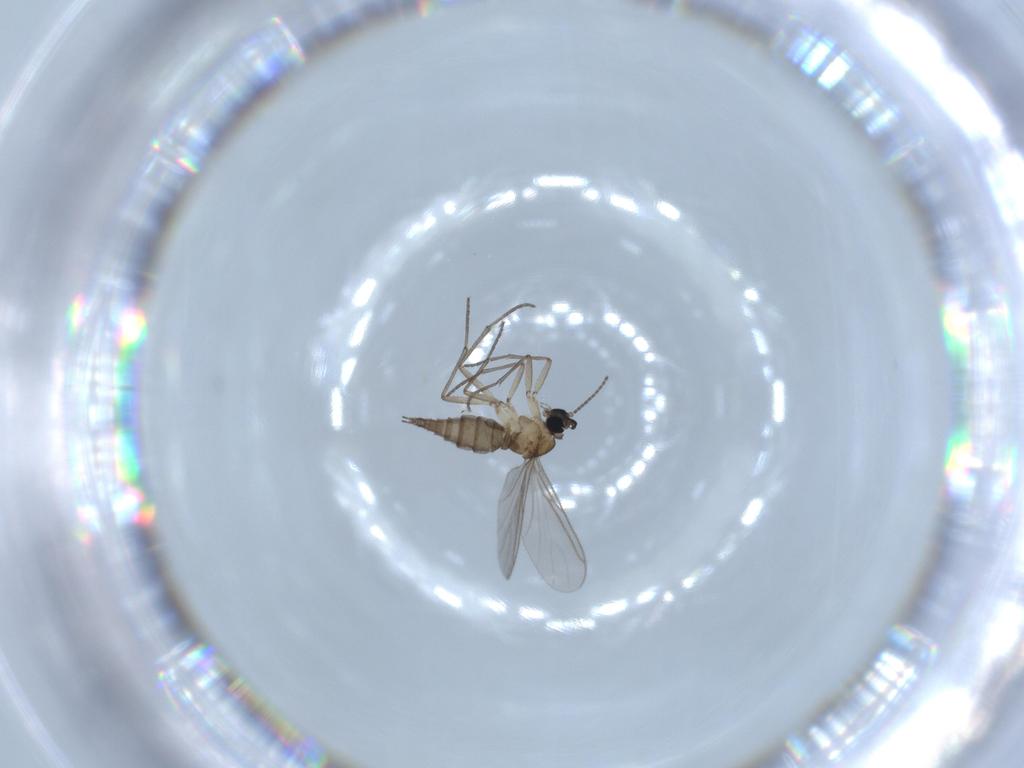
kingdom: Animalia
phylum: Arthropoda
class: Insecta
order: Diptera
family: Sciaridae
